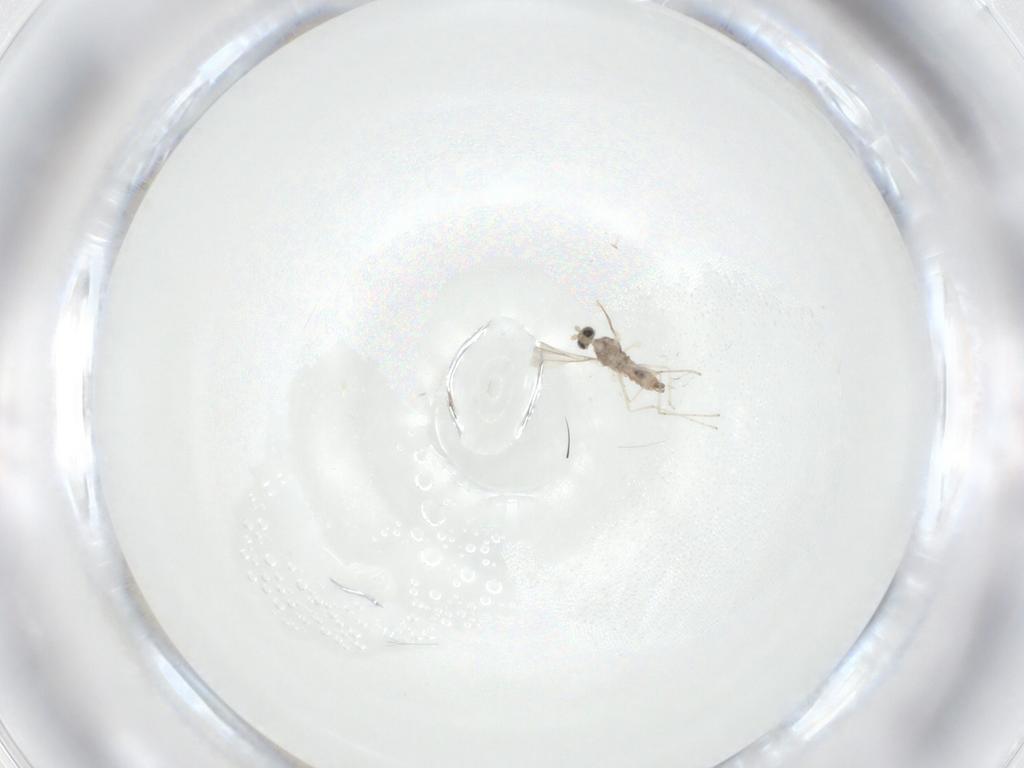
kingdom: Animalia
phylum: Arthropoda
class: Insecta
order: Diptera
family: Cecidomyiidae
